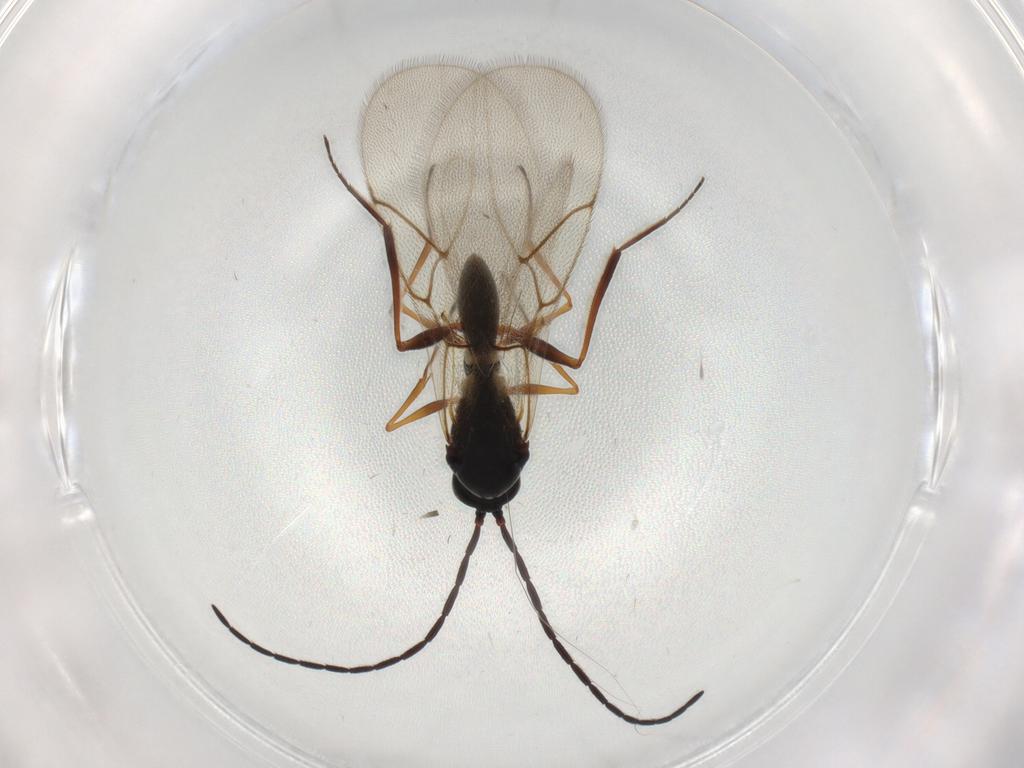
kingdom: Animalia
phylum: Arthropoda
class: Insecta
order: Hymenoptera
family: Figitidae
